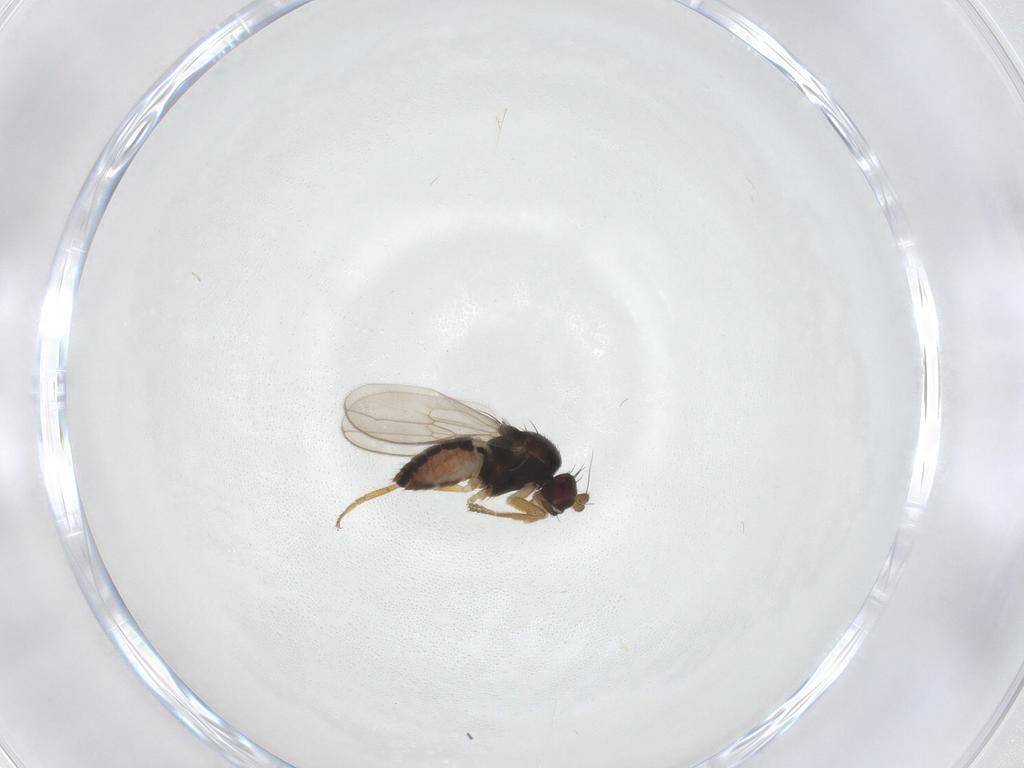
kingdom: Animalia
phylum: Arthropoda
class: Insecta
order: Diptera
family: Sphaeroceridae
